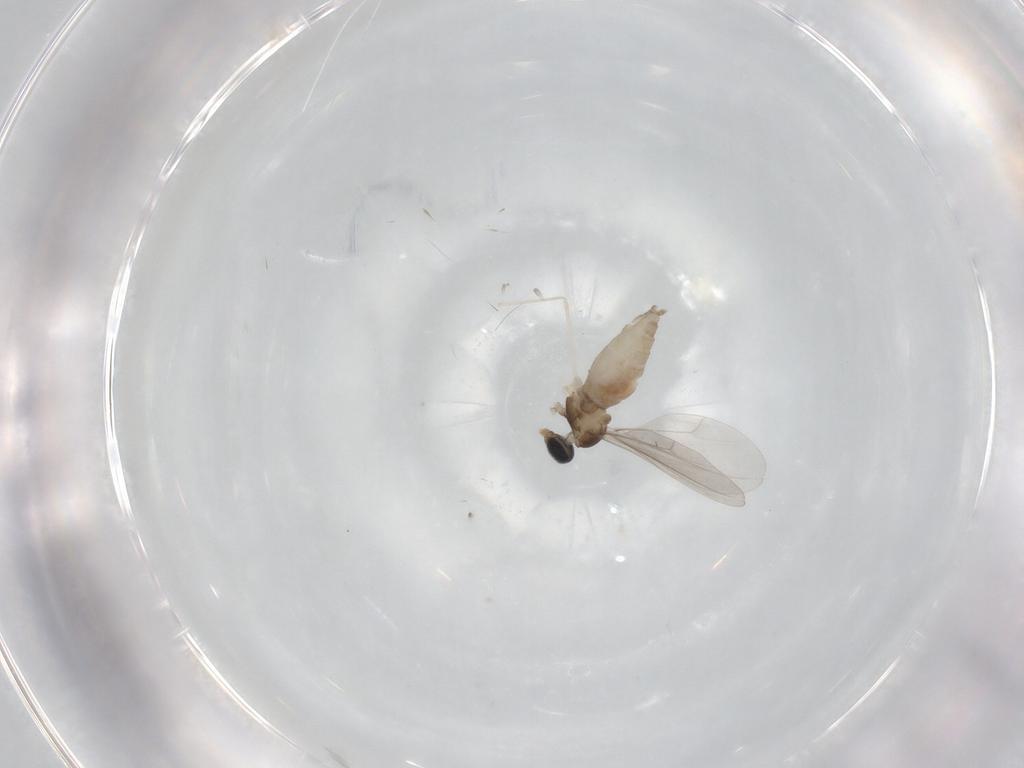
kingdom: Animalia
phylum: Arthropoda
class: Insecta
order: Diptera
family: Cecidomyiidae
